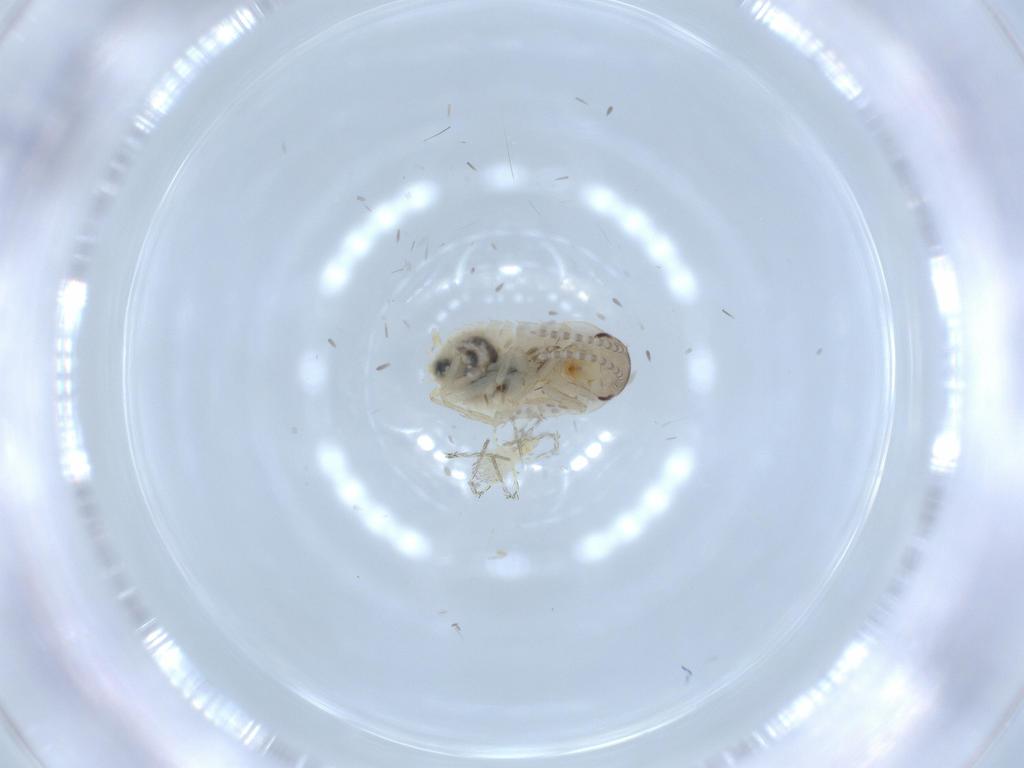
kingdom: Animalia
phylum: Arthropoda
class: Insecta
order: Blattodea
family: Ectobiidae
